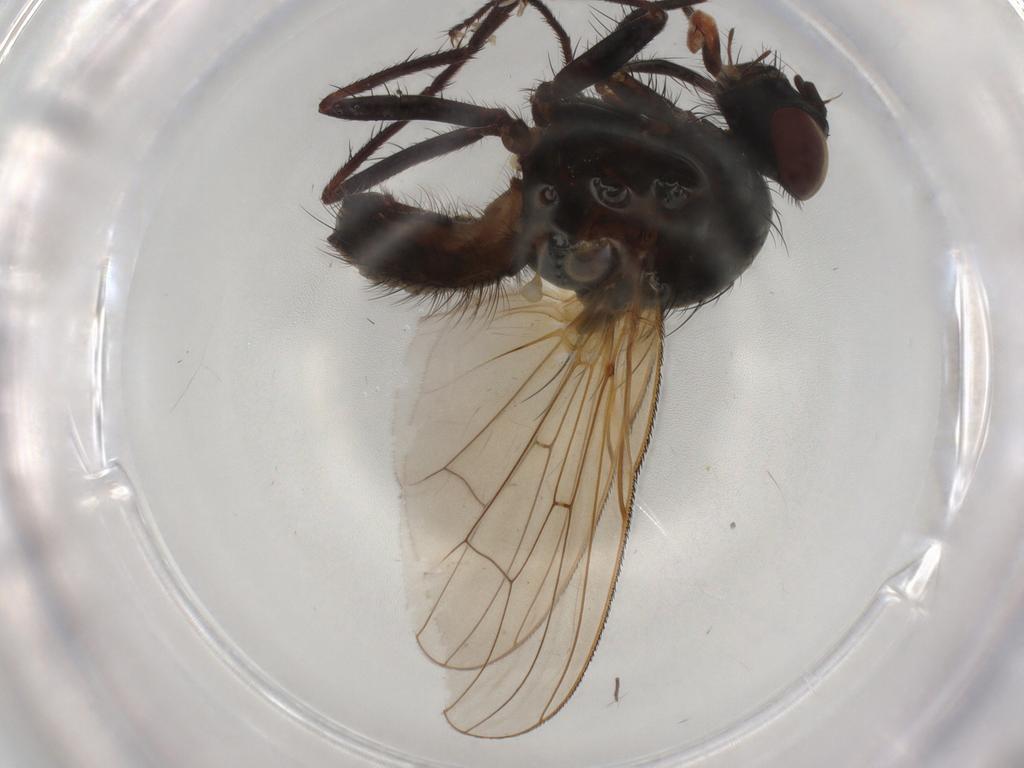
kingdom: Animalia
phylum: Arthropoda
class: Insecta
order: Diptera
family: Anthomyiidae
